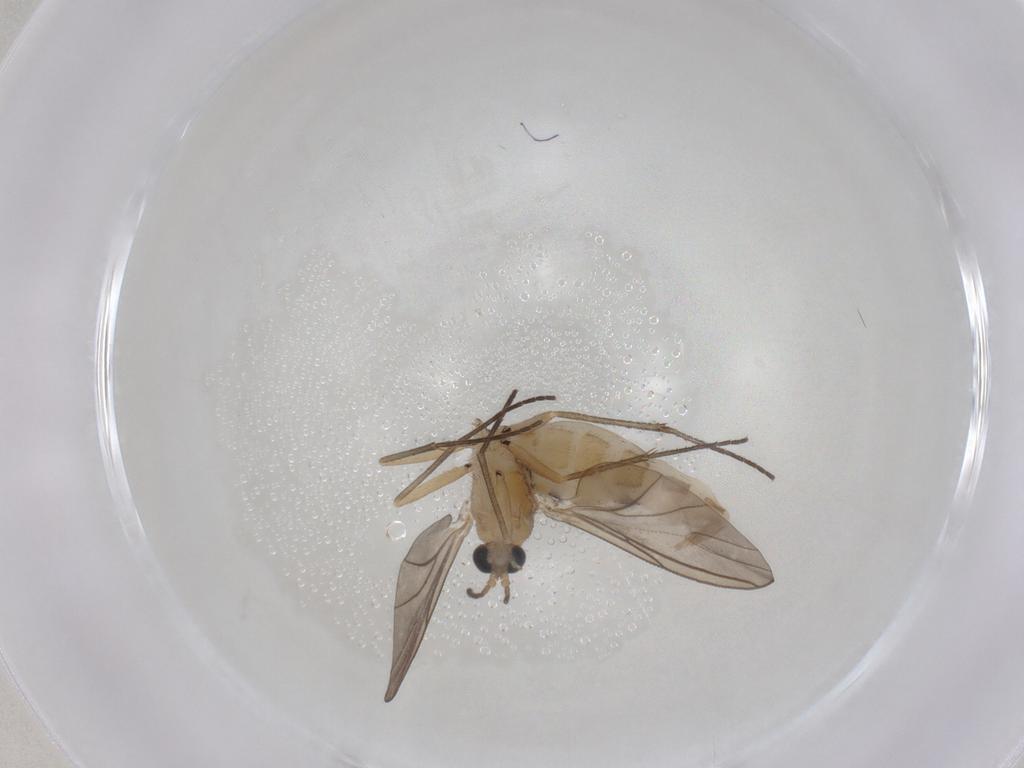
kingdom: Animalia
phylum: Arthropoda
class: Insecta
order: Diptera
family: Sciaridae
